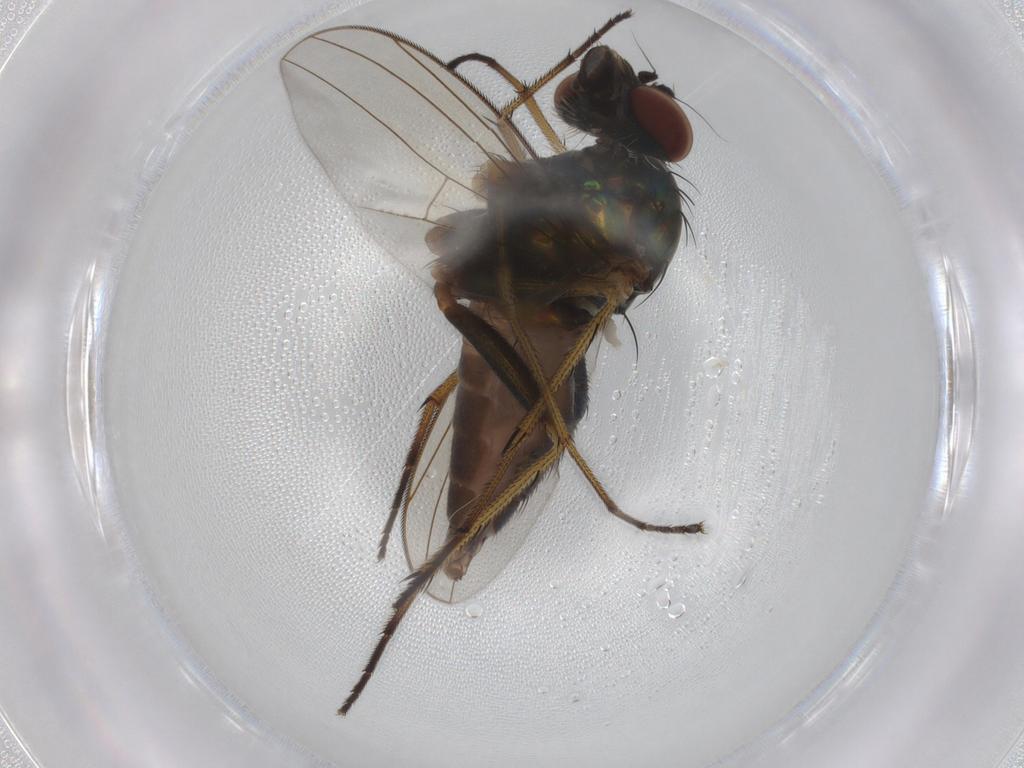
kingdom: Animalia
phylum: Arthropoda
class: Insecta
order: Diptera
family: Dolichopodidae
